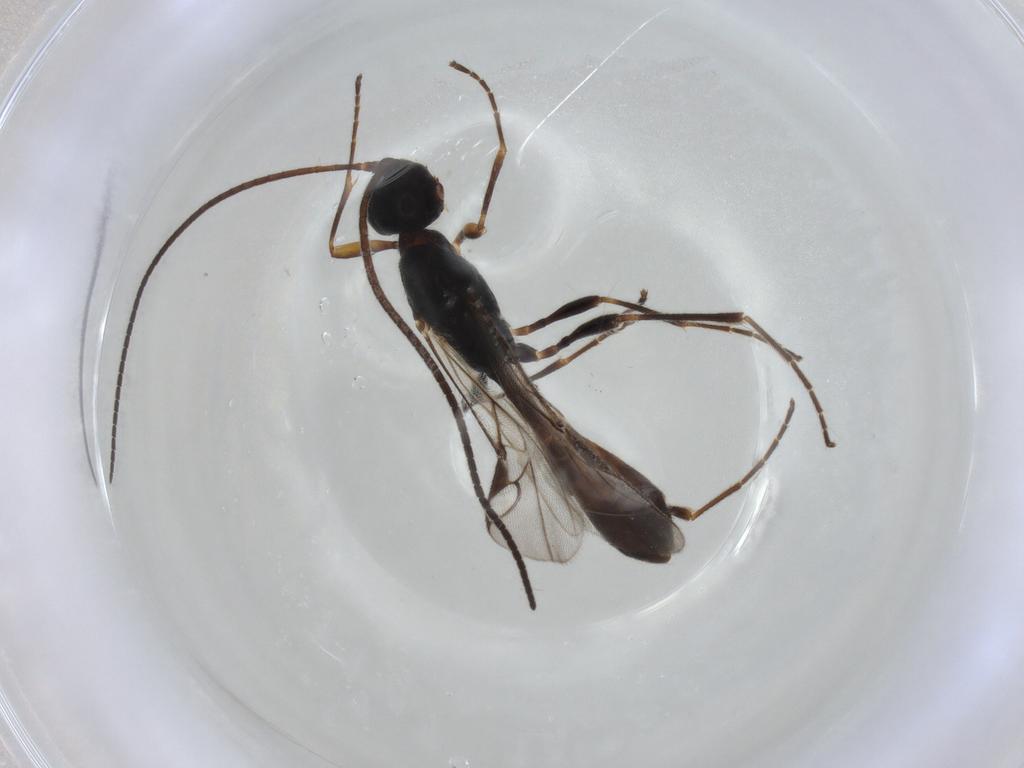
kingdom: Animalia
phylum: Arthropoda
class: Insecta
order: Hymenoptera
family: Braconidae
